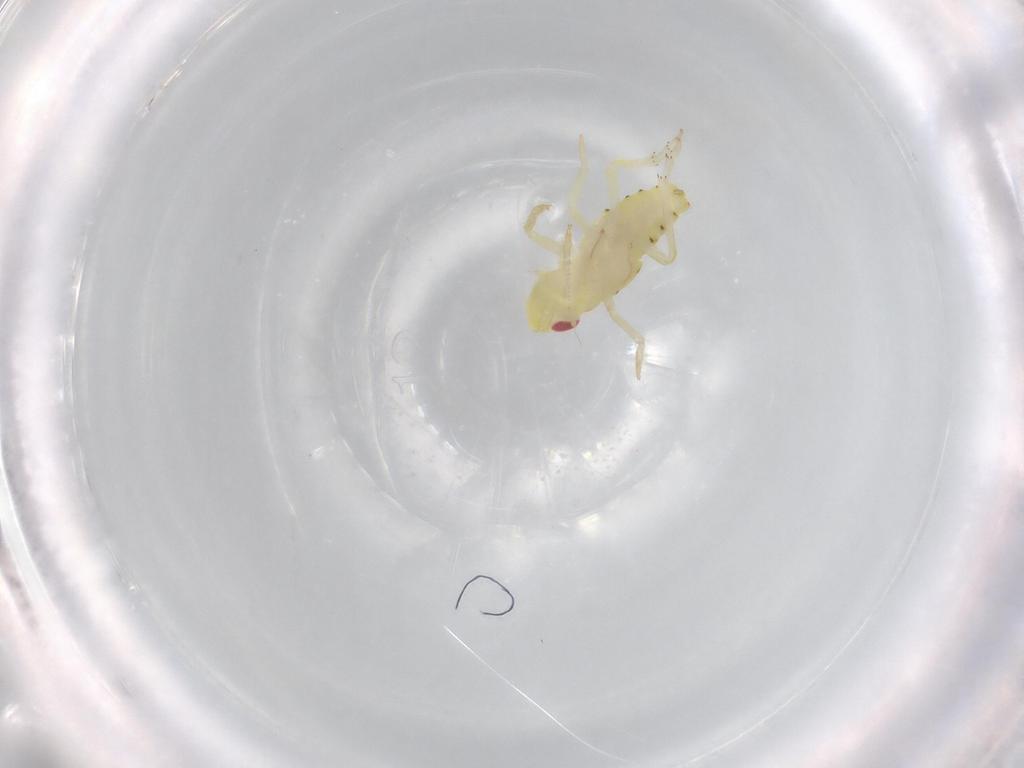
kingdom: Animalia
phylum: Arthropoda
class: Insecta
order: Hemiptera
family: Tropiduchidae
